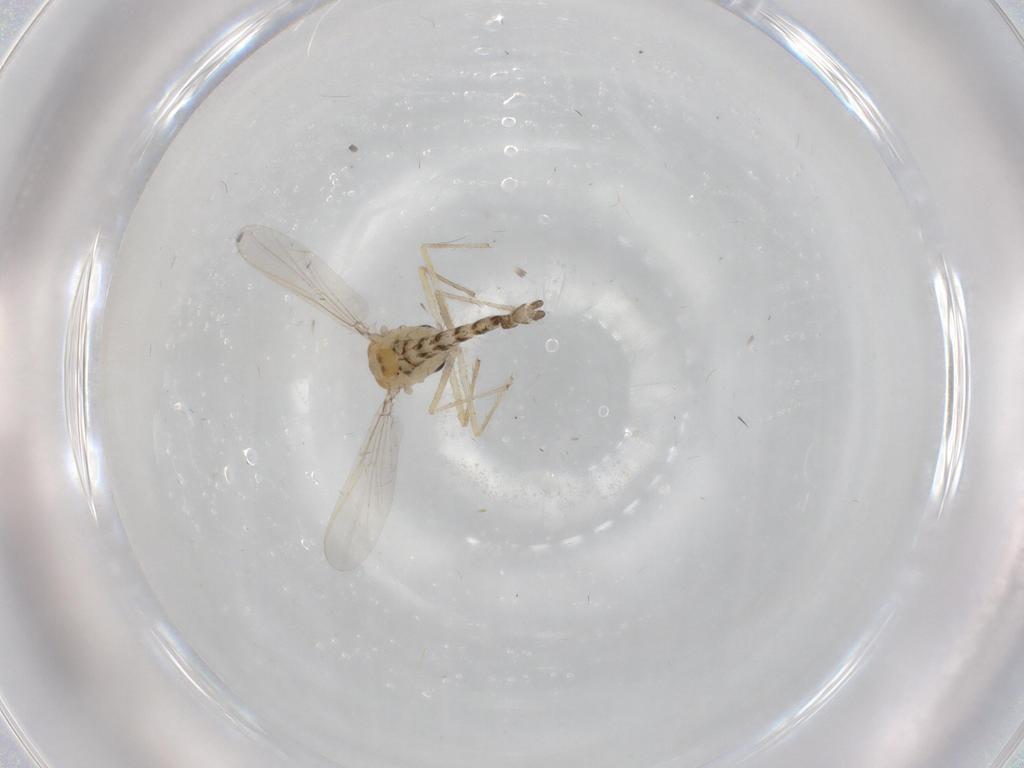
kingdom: Animalia
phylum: Arthropoda
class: Insecta
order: Diptera
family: Chironomidae
